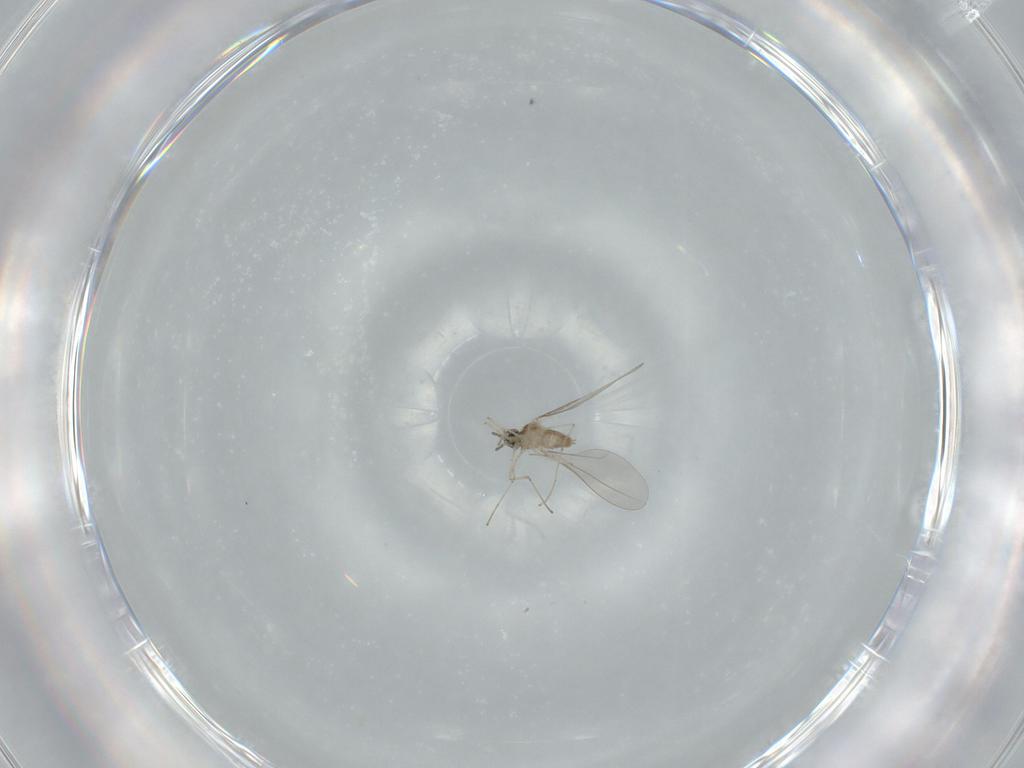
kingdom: Animalia
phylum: Arthropoda
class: Insecta
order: Diptera
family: Cecidomyiidae
